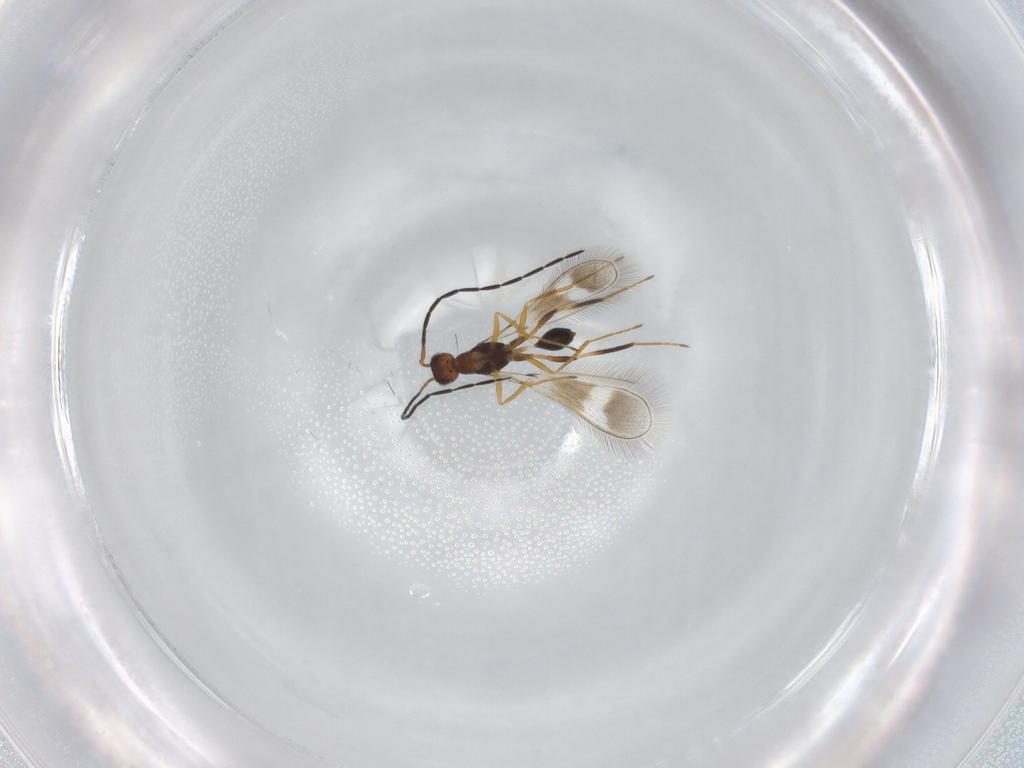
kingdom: Animalia
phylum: Arthropoda
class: Insecta
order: Hymenoptera
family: Mymaridae
